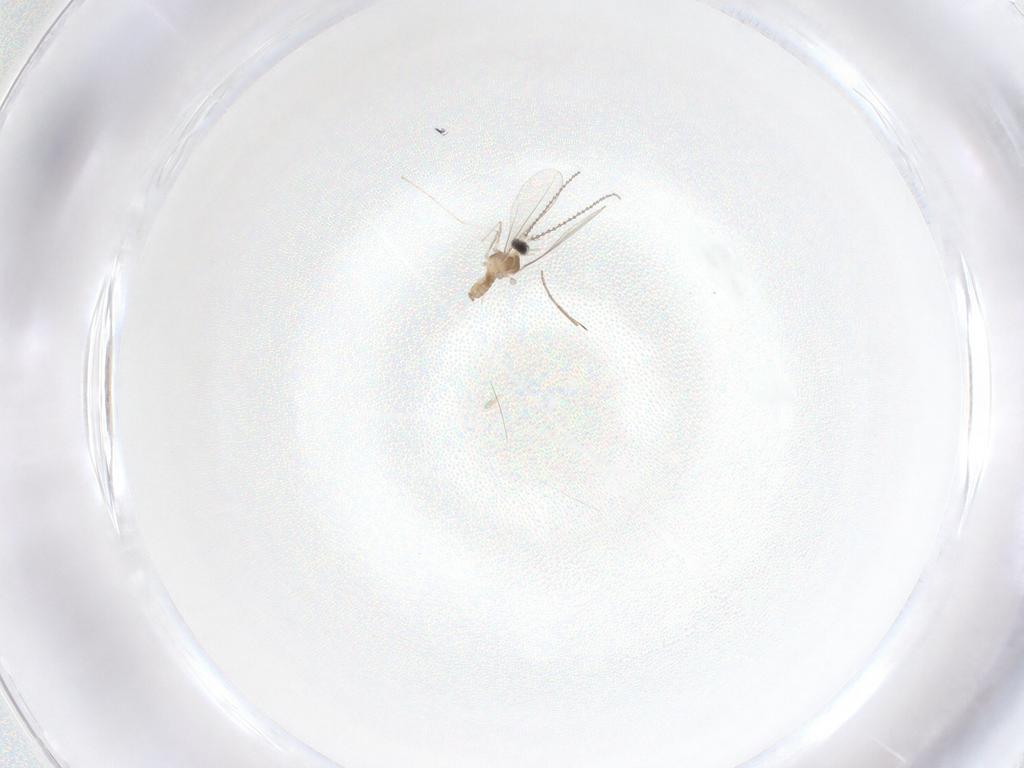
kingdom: Animalia
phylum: Arthropoda
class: Insecta
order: Diptera
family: Cecidomyiidae
